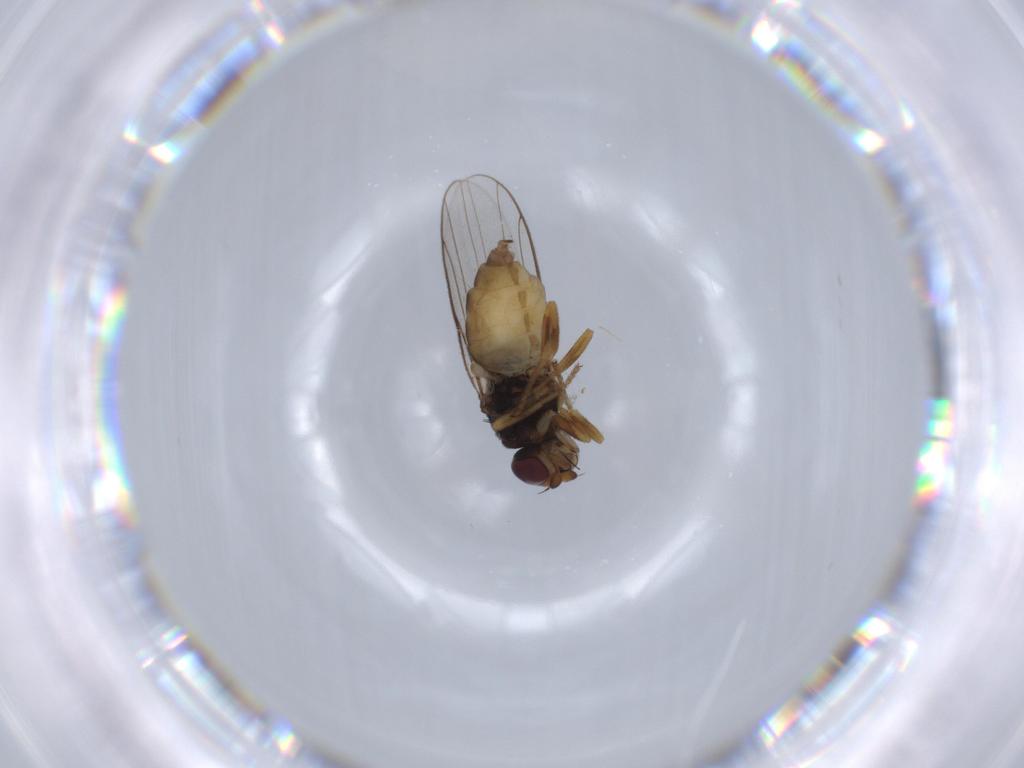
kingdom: Animalia
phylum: Arthropoda
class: Insecta
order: Diptera
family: Chloropidae
